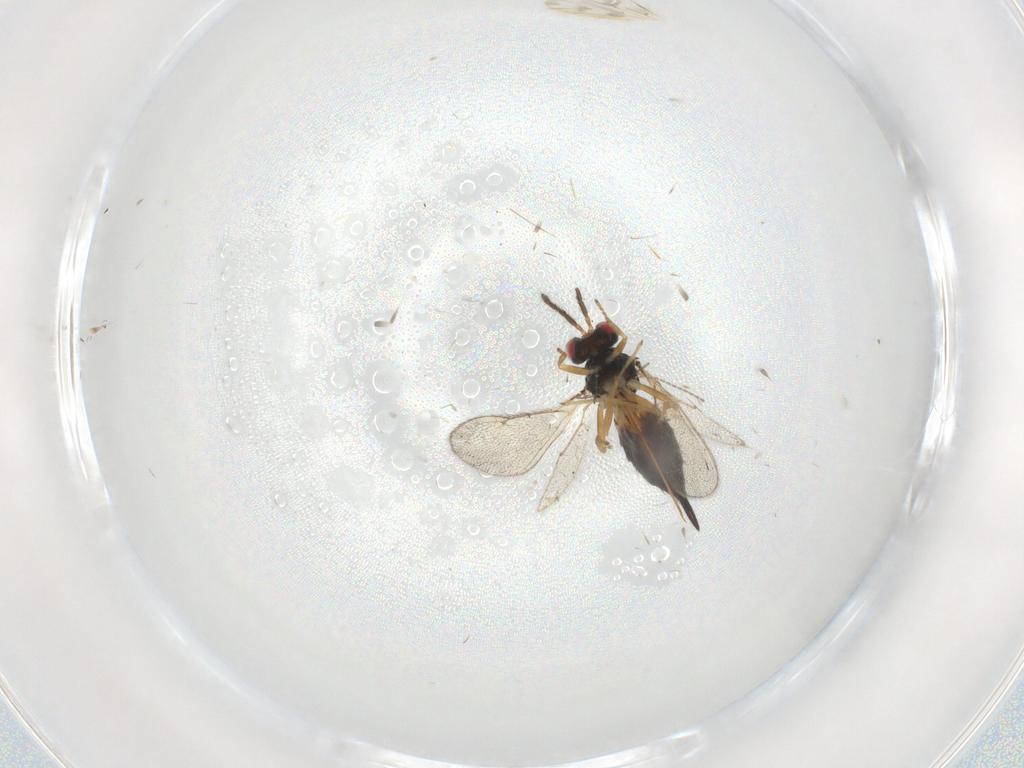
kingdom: Animalia
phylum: Arthropoda
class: Insecta
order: Hymenoptera
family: Eulophidae
